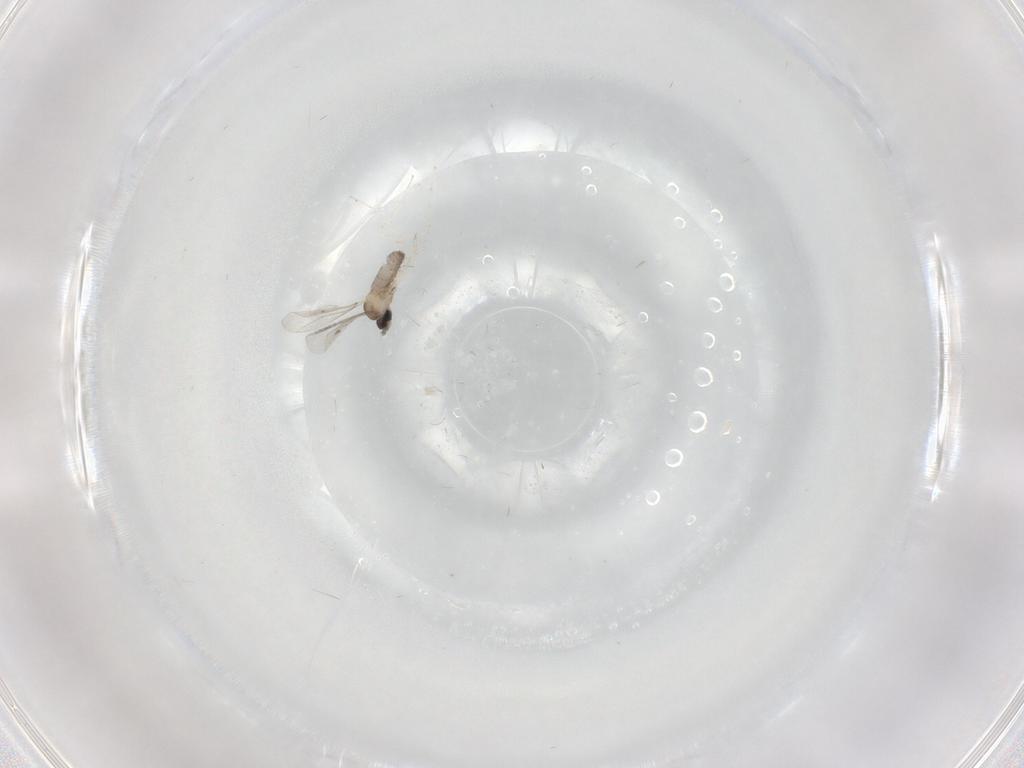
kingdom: Animalia
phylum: Arthropoda
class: Insecta
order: Diptera
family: Cecidomyiidae
